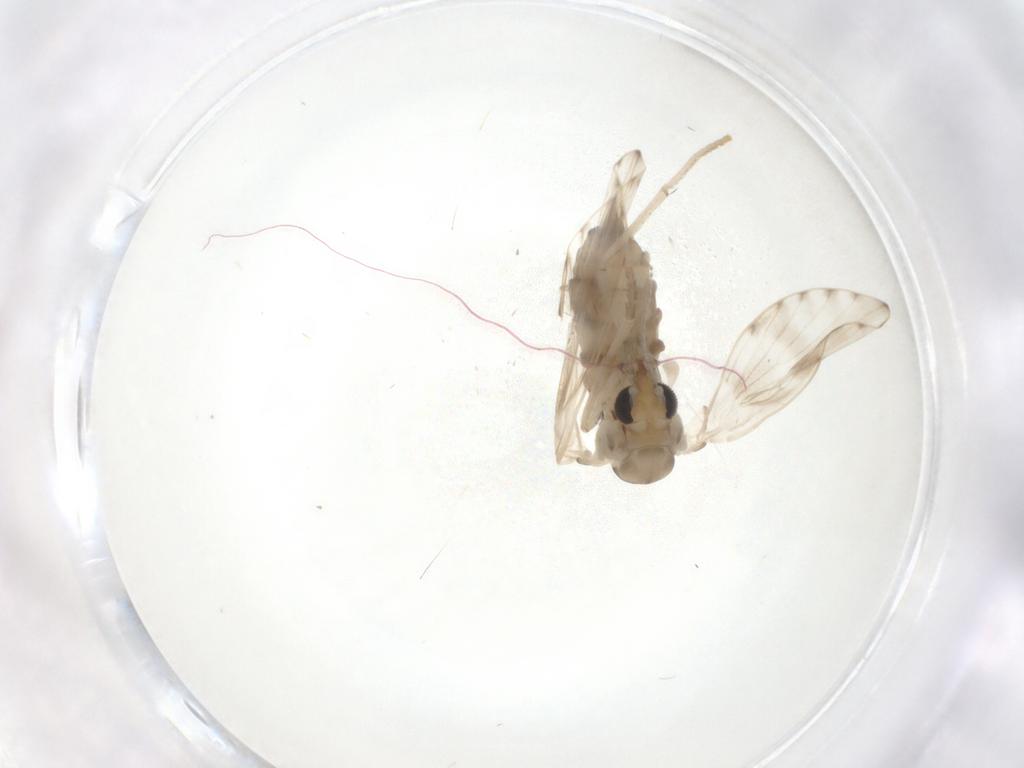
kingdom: Animalia
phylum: Arthropoda
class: Insecta
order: Diptera
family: Psychodidae
